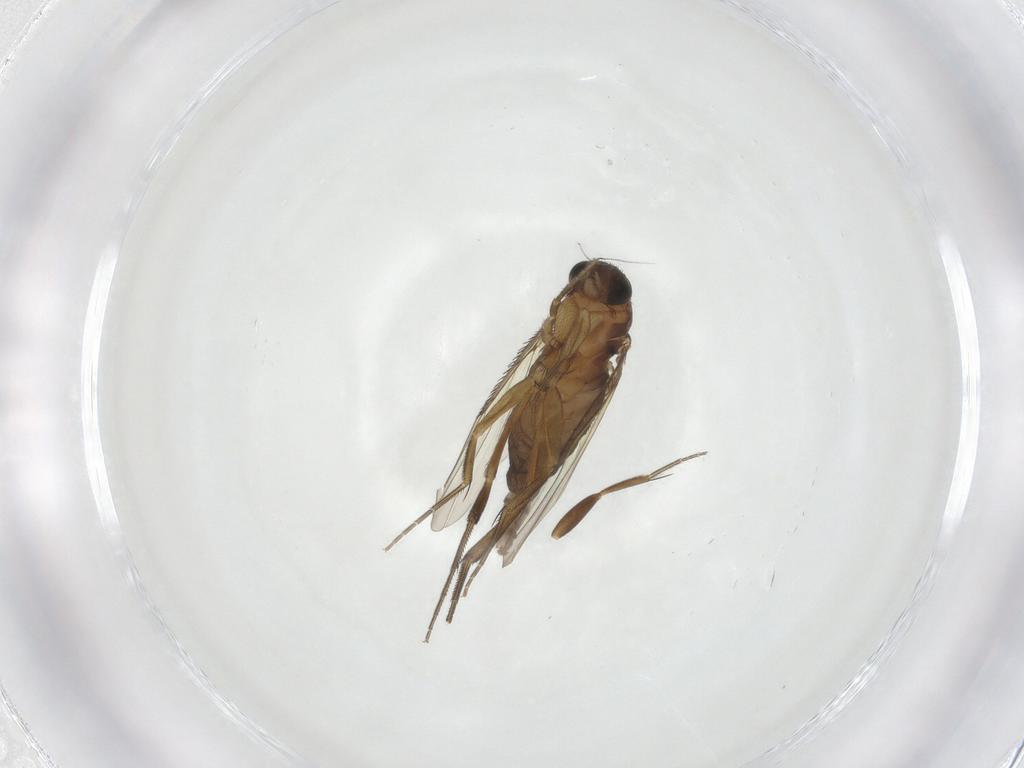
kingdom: Animalia
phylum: Arthropoda
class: Insecta
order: Diptera
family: Phoridae
